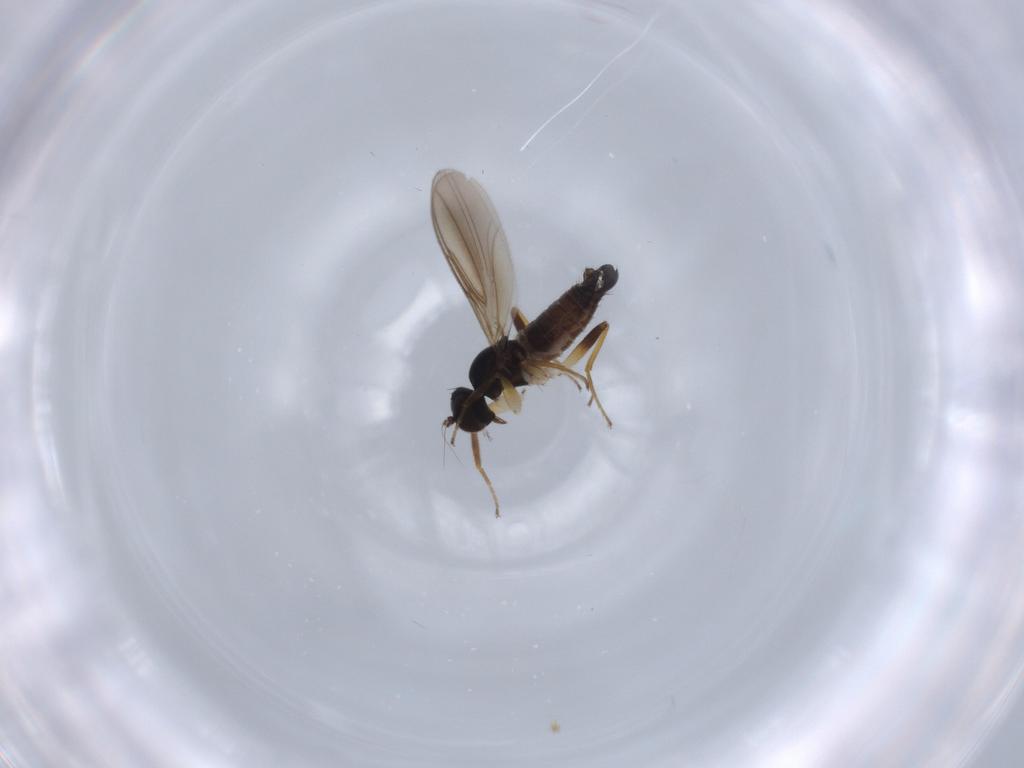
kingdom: Animalia
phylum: Arthropoda
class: Insecta
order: Diptera
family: Hybotidae
